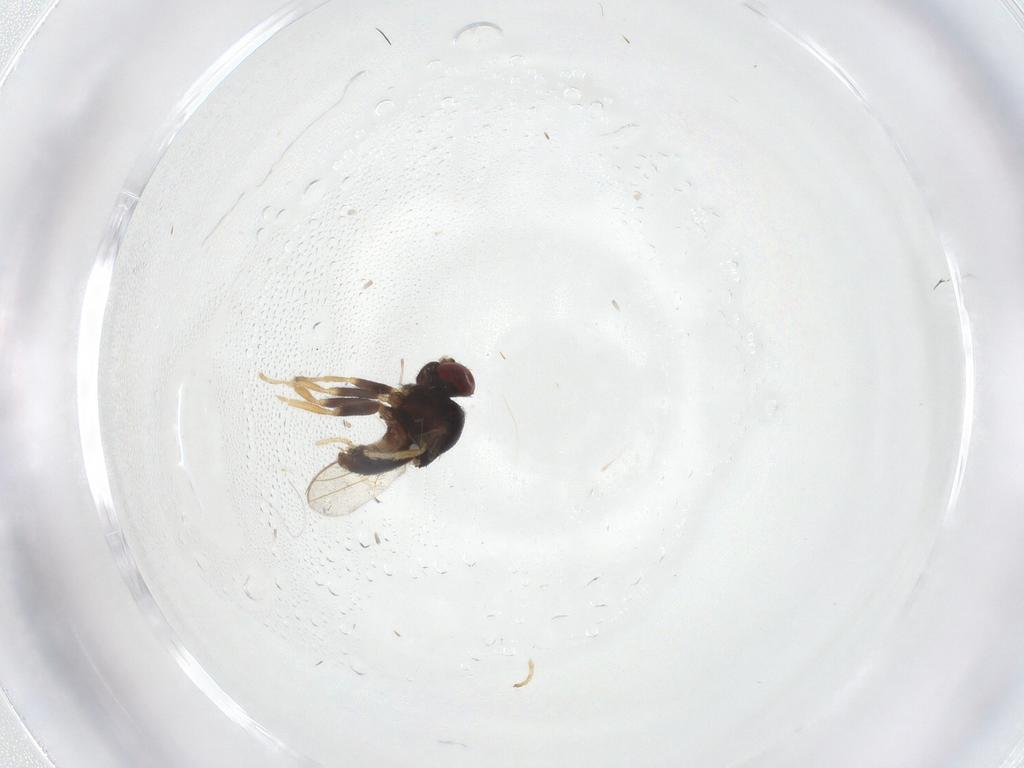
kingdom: Animalia
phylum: Arthropoda
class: Insecta
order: Diptera
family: Chloropidae
